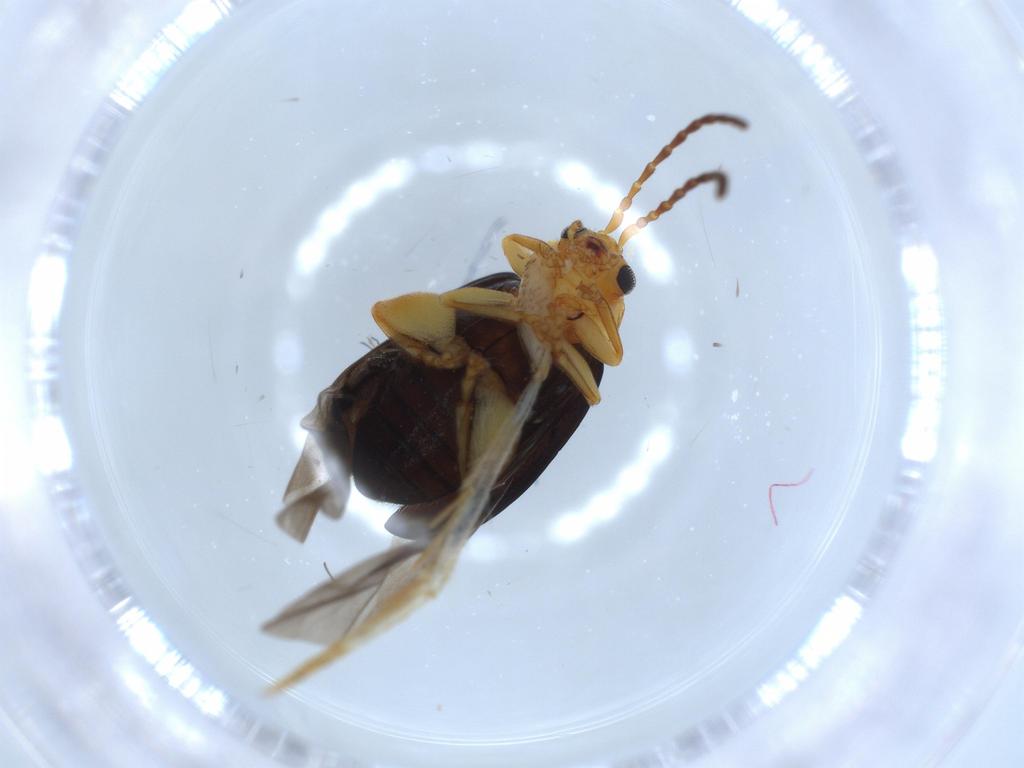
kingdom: Animalia
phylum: Arthropoda
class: Insecta
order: Coleoptera
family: Chrysomelidae
